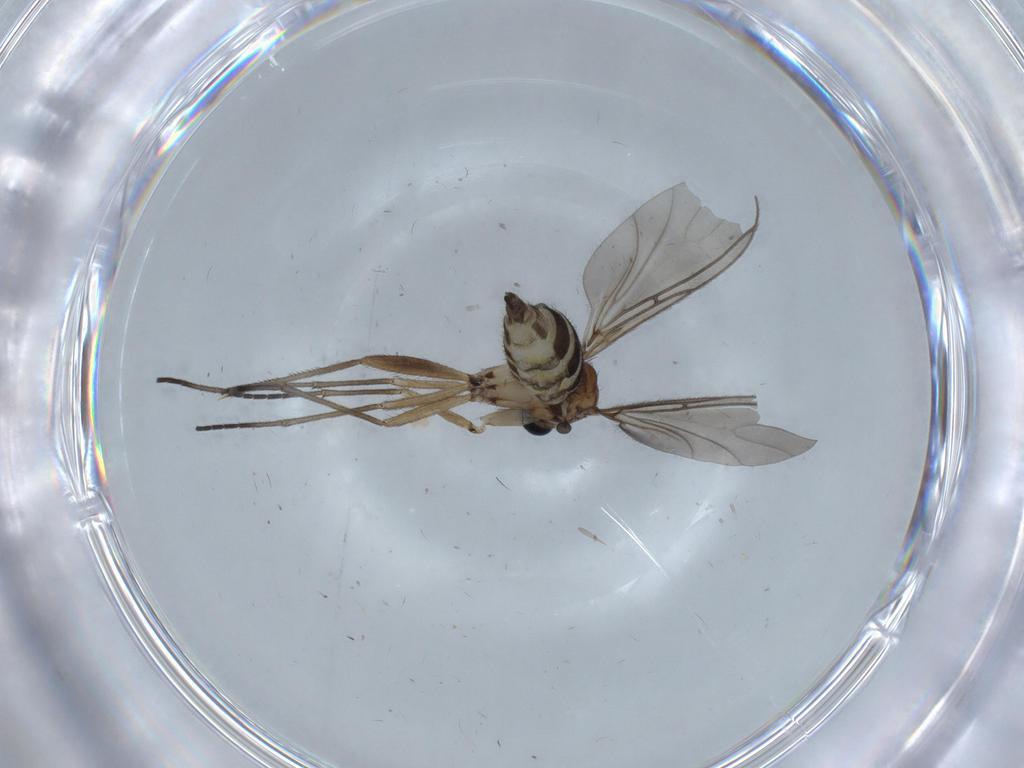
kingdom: Animalia
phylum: Arthropoda
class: Insecta
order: Diptera
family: Sciaridae
